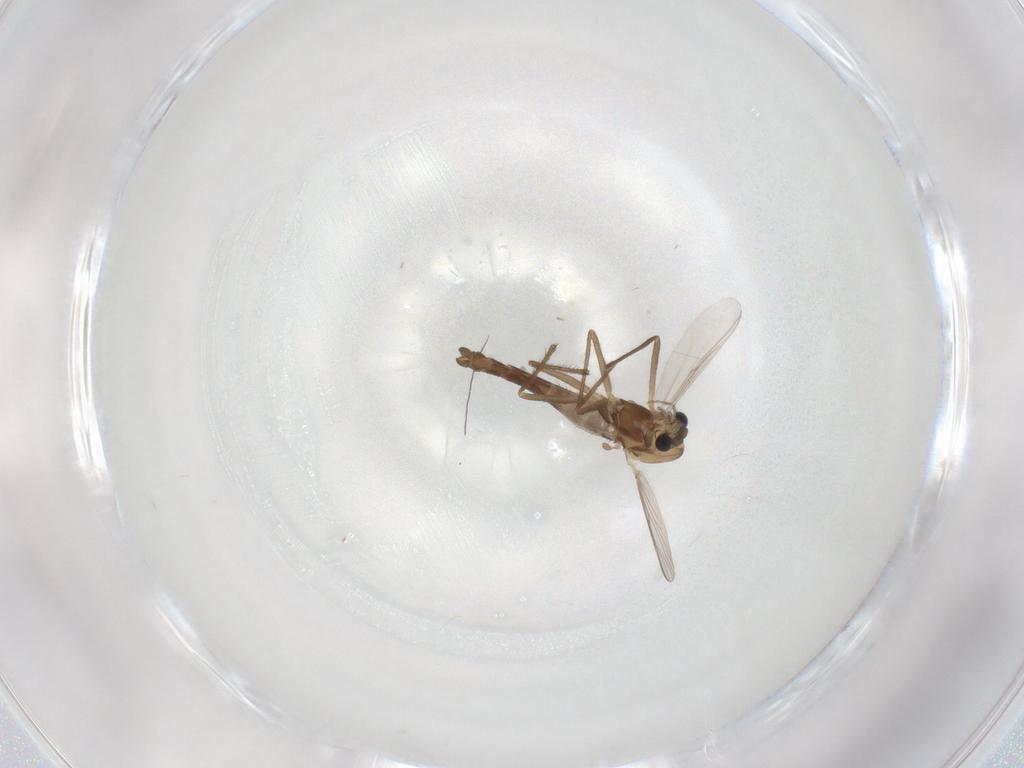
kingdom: Animalia
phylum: Arthropoda
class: Insecta
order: Diptera
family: Chironomidae
